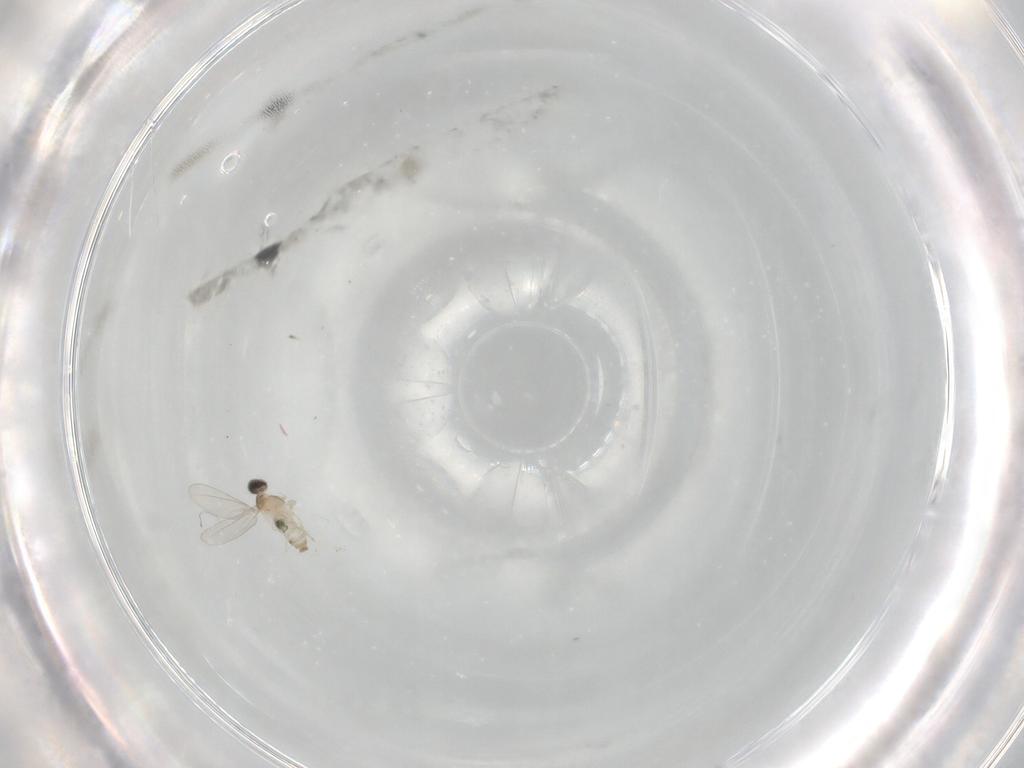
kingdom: Animalia
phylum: Arthropoda
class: Insecta
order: Diptera
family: Cecidomyiidae
